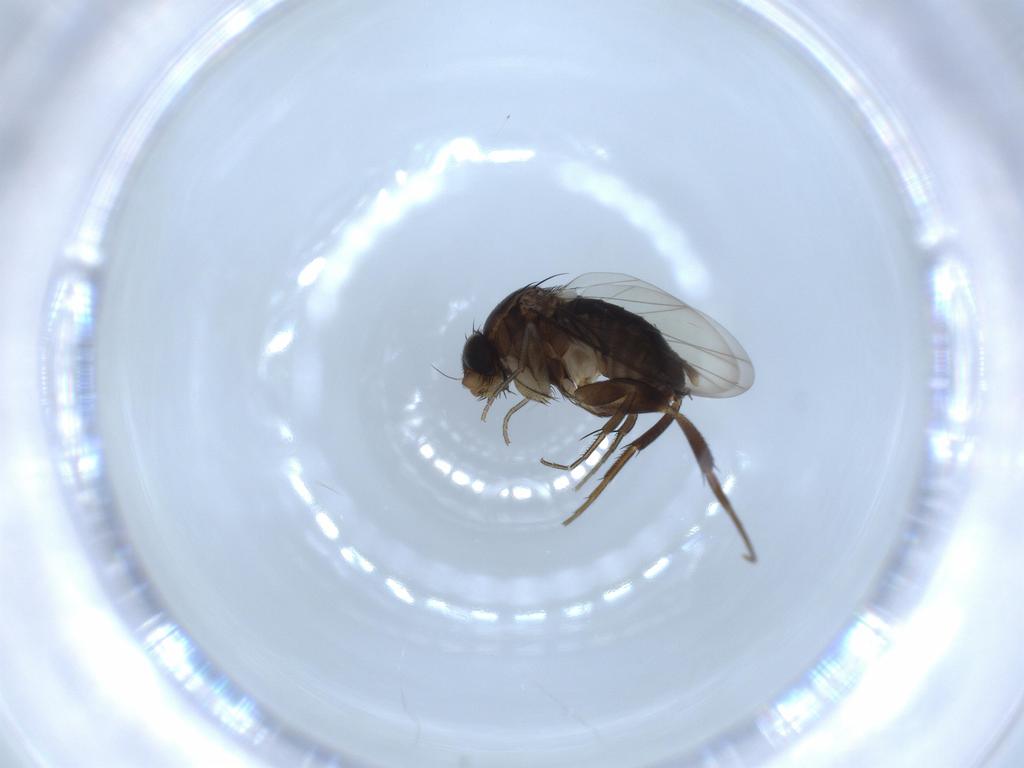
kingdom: Animalia
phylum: Arthropoda
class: Insecta
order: Diptera
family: Phoridae
